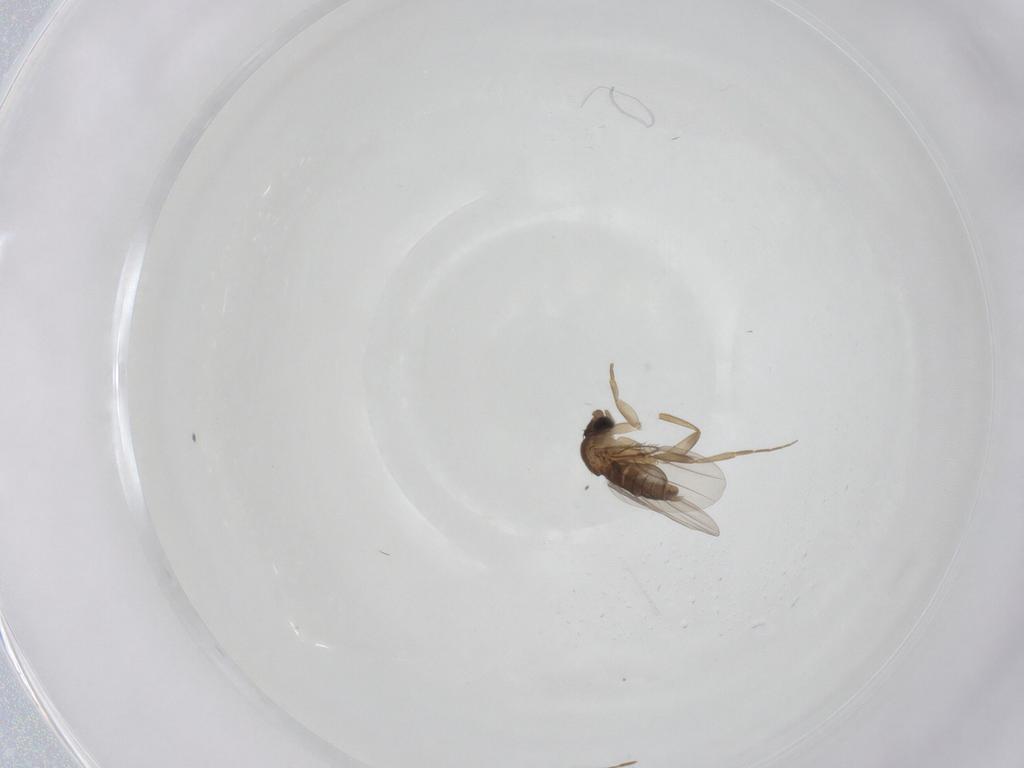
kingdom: Animalia
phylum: Arthropoda
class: Insecta
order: Diptera
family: Phoridae
